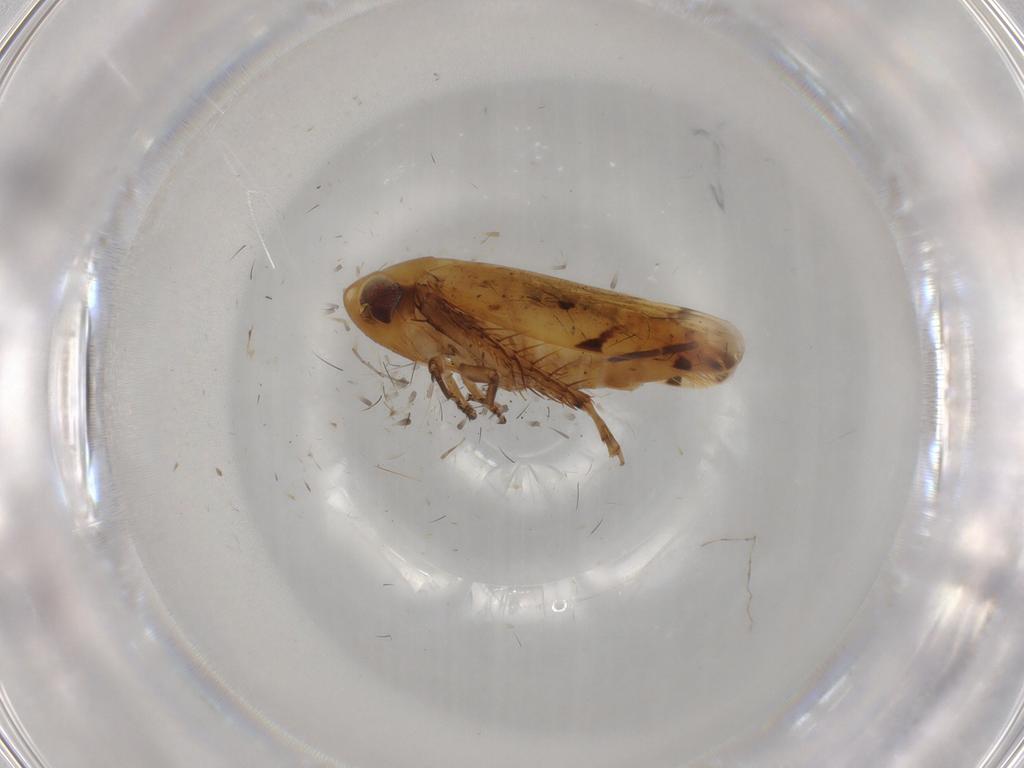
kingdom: Animalia
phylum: Arthropoda
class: Insecta
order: Hemiptera
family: Cicadellidae
